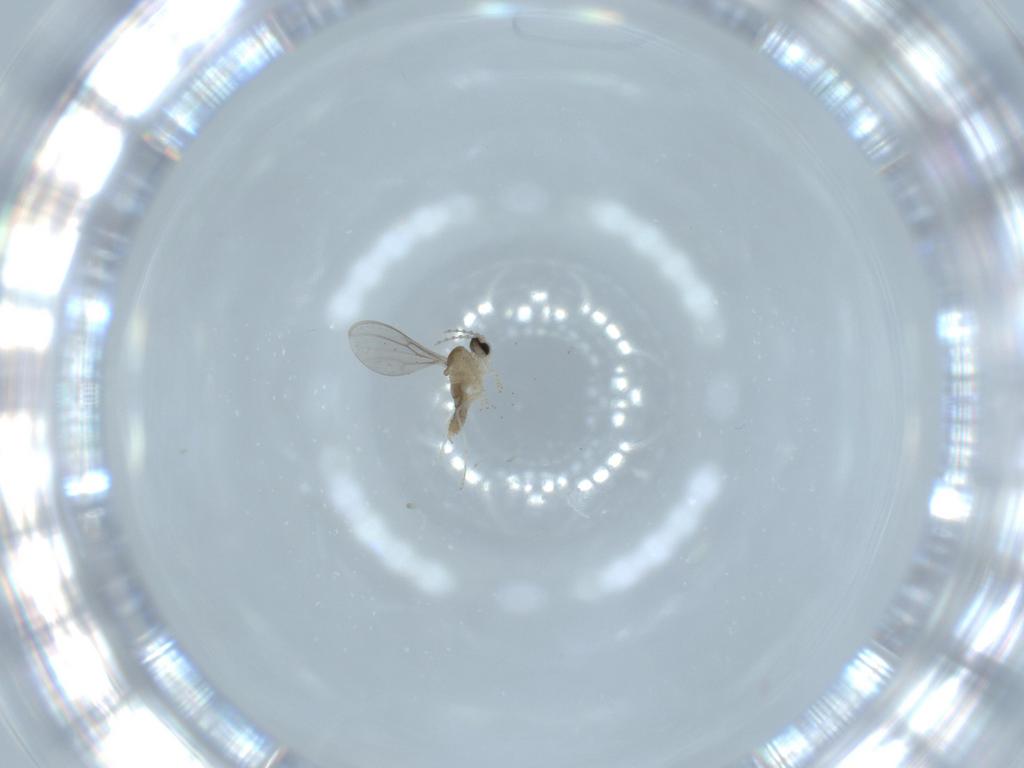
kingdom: Animalia
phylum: Arthropoda
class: Insecta
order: Diptera
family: Cecidomyiidae
